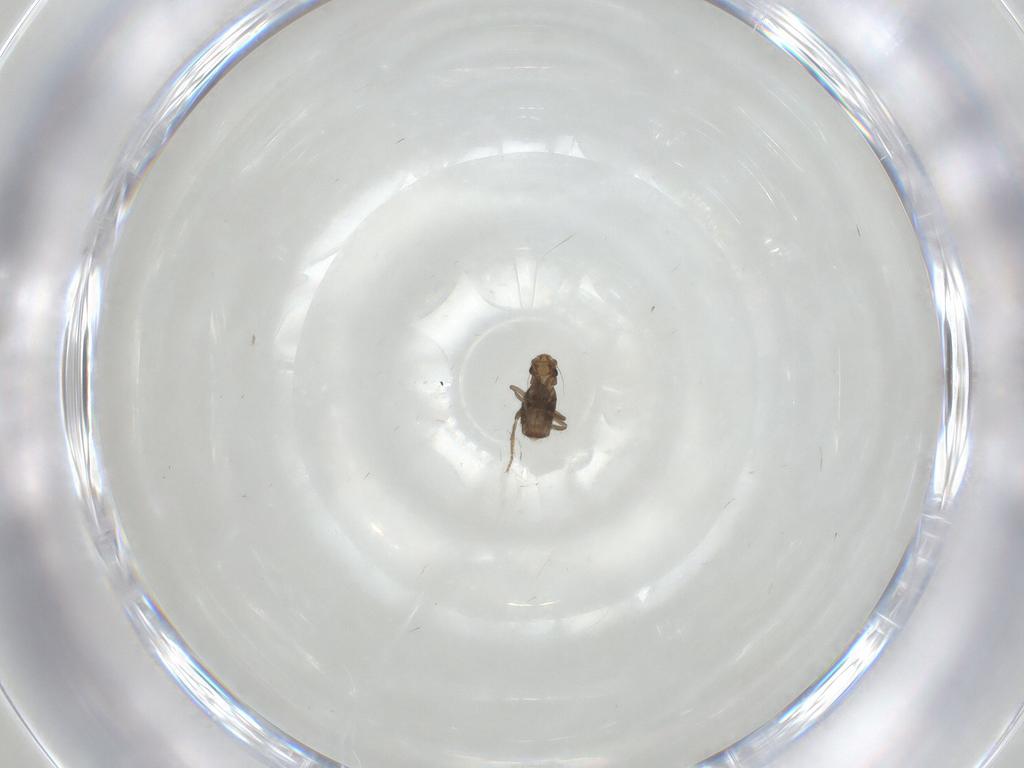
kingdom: Animalia
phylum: Arthropoda
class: Insecta
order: Diptera
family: Phoridae
